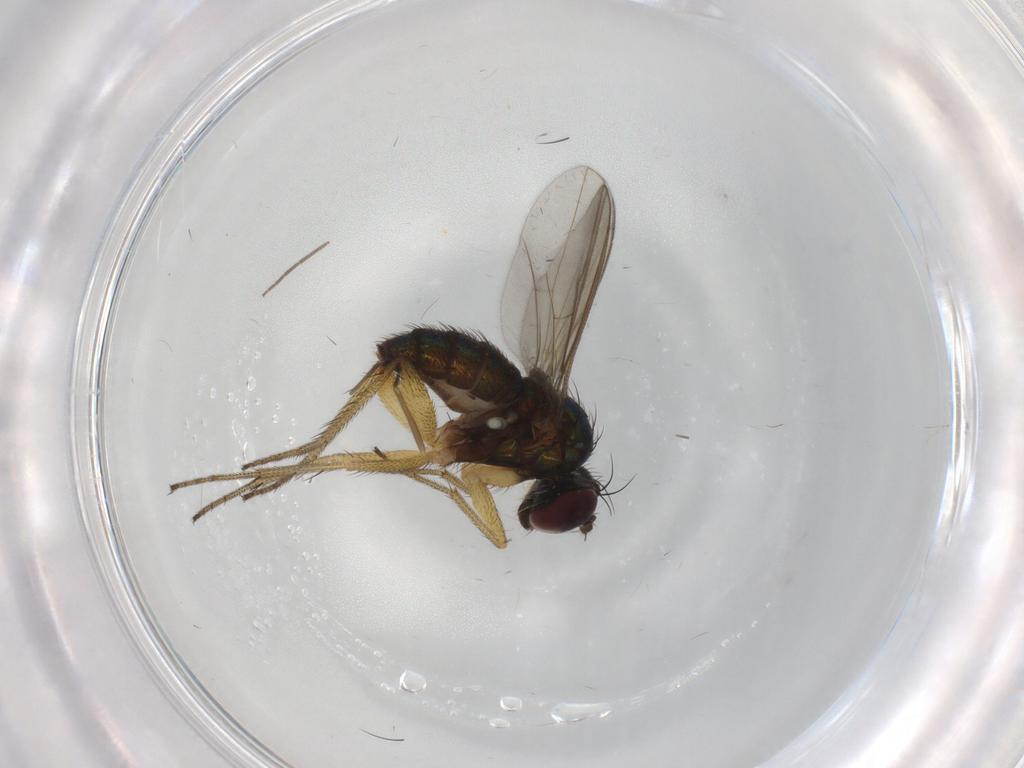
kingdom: Animalia
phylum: Arthropoda
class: Insecta
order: Diptera
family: Chironomidae
